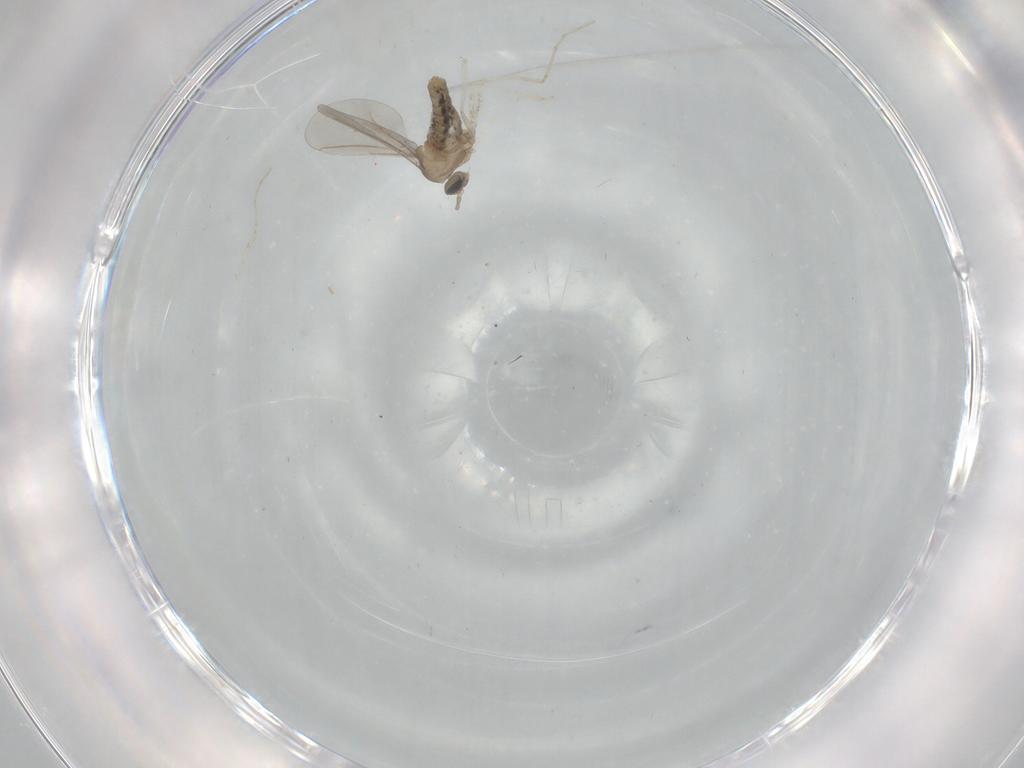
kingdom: Animalia
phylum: Arthropoda
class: Insecta
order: Diptera
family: Cecidomyiidae
